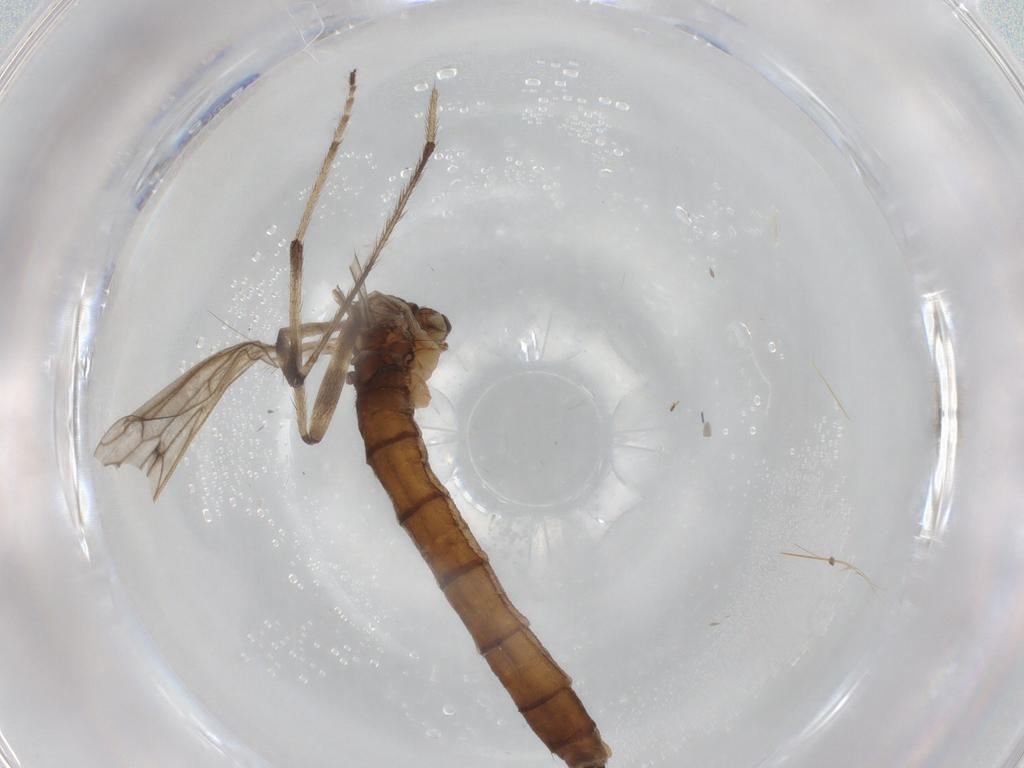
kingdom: Animalia
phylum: Arthropoda
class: Insecta
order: Diptera
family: Limoniidae
